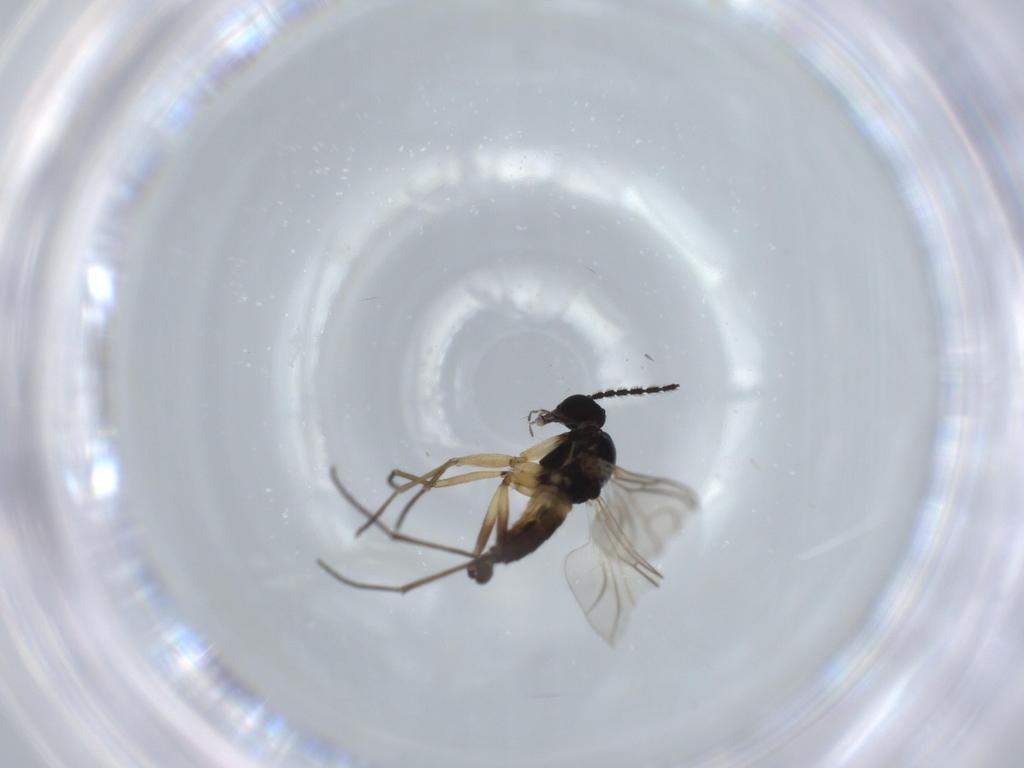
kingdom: Animalia
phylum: Arthropoda
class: Insecta
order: Diptera
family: Phoridae
